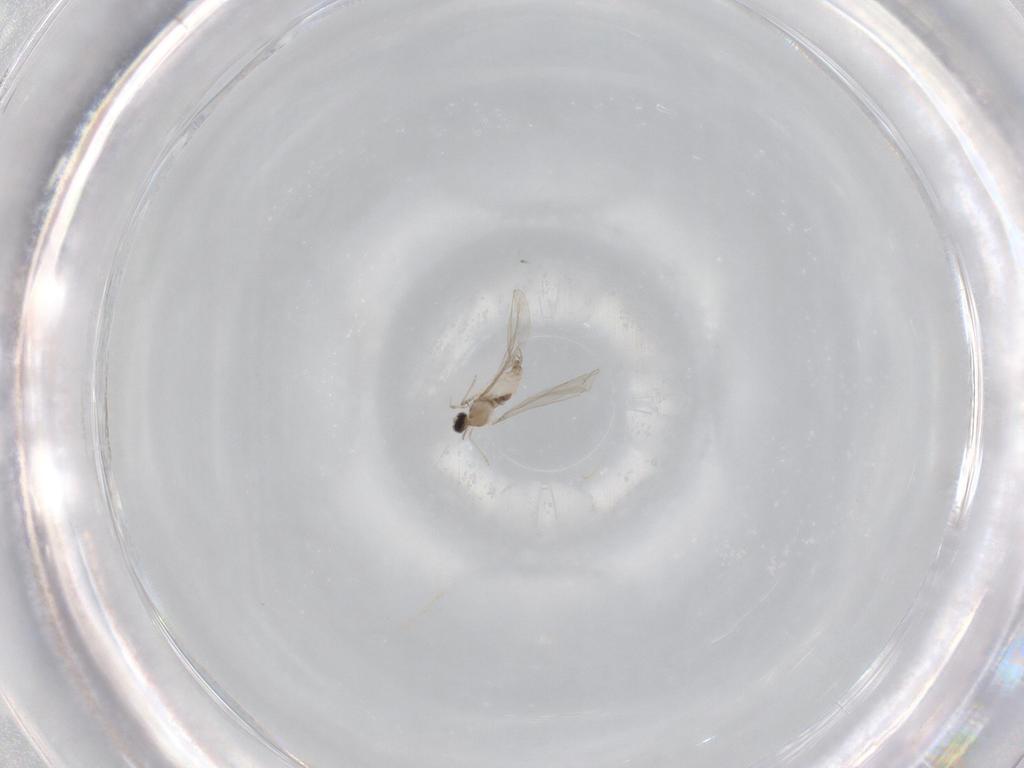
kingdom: Animalia
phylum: Arthropoda
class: Insecta
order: Diptera
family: Cecidomyiidae
